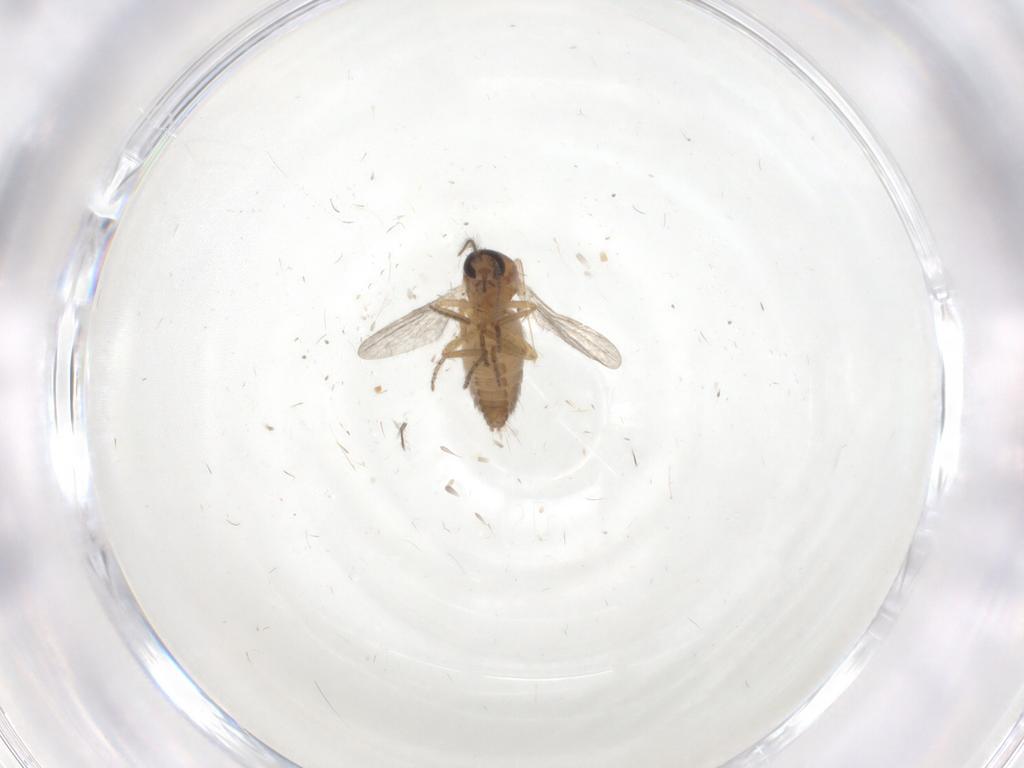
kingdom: Animalia
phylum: Arthropoda
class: Insecta
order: Diptera
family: Ceratopogonidae
